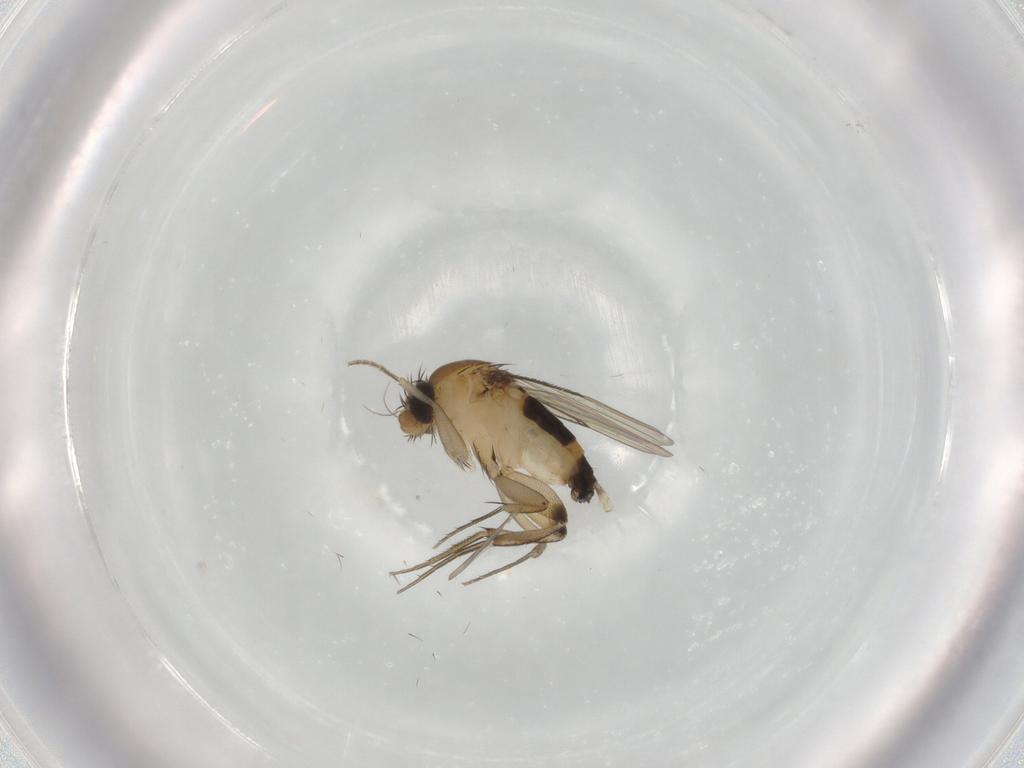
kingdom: Animalia
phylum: Arthropoda
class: Insecta
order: Diptera
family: Phoridae
